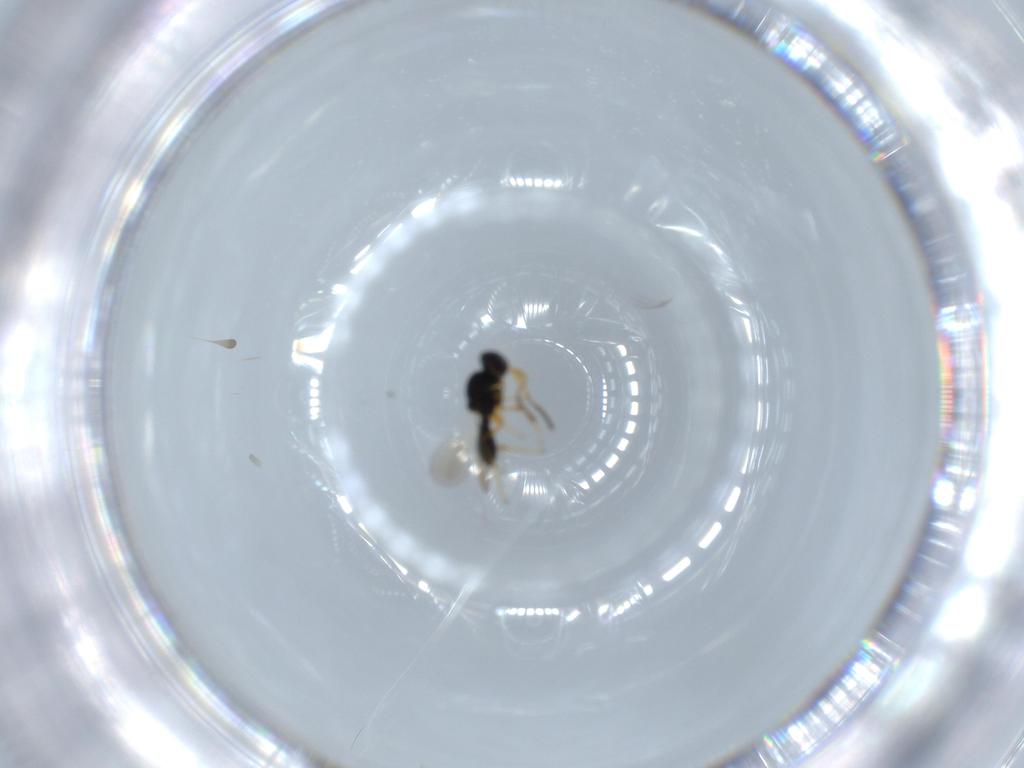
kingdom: Animalia
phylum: Arthropoda
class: Insecta
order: Hymenoptera
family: Platygastridae
